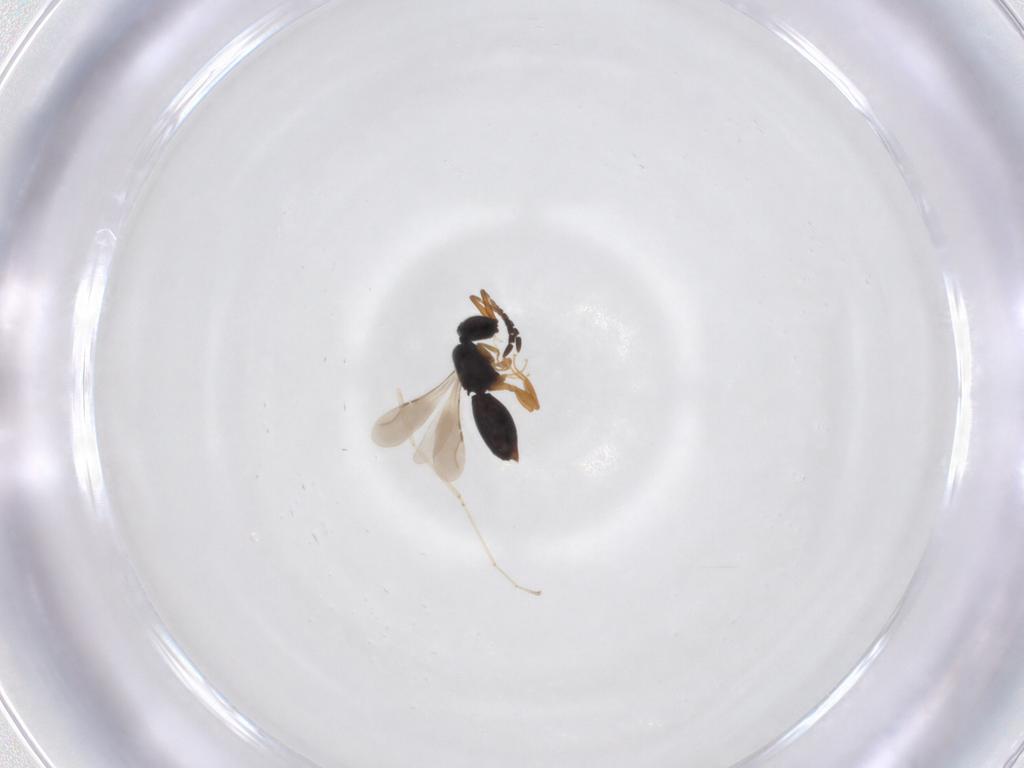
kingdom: Animalia
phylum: Arthropoda
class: Insecta
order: Diptera
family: Cecidomyiidae
